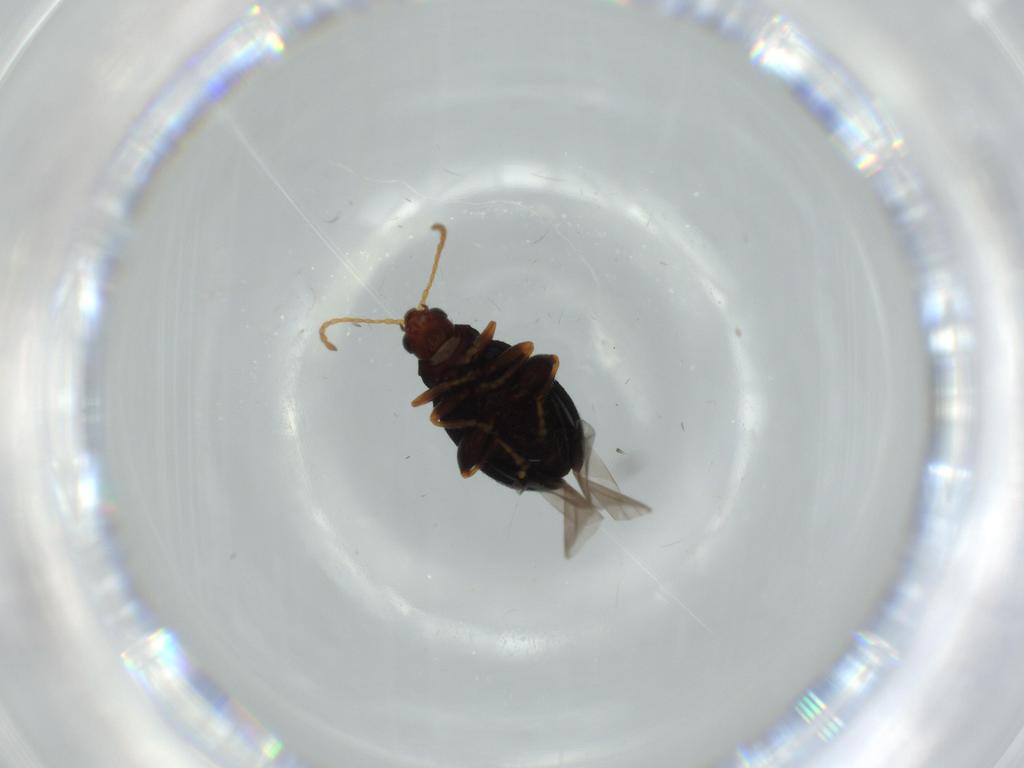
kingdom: Animalia
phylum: Arthropoda
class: Insecta
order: Coleoptera
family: Chrysomelidae
